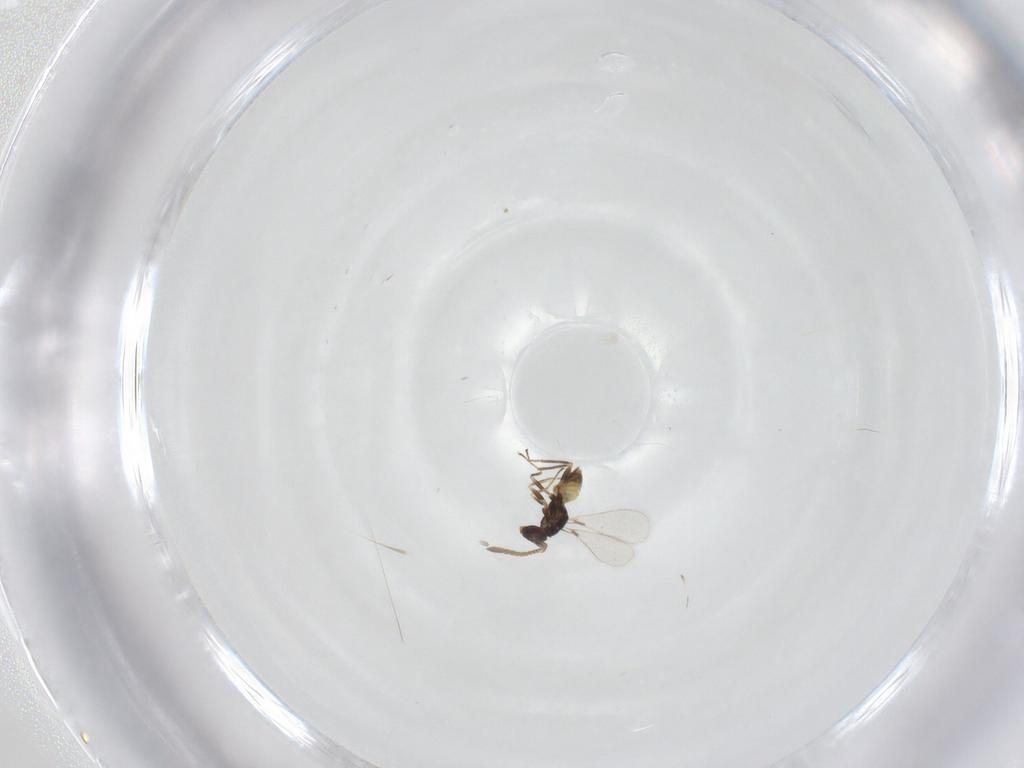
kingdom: Animalia
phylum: Arthropoda
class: Insecta
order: Hymenoptera
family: Mymaridae
